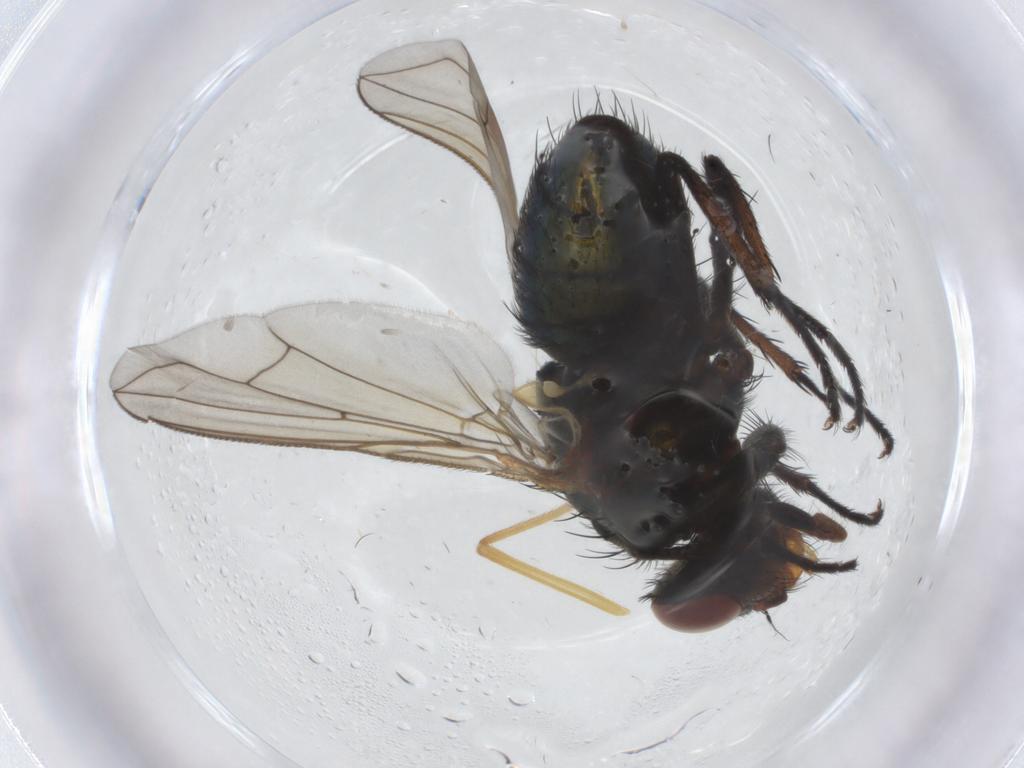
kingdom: Animalia
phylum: Arthropoda
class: Insecta
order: Diptera
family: Calliphoridae
